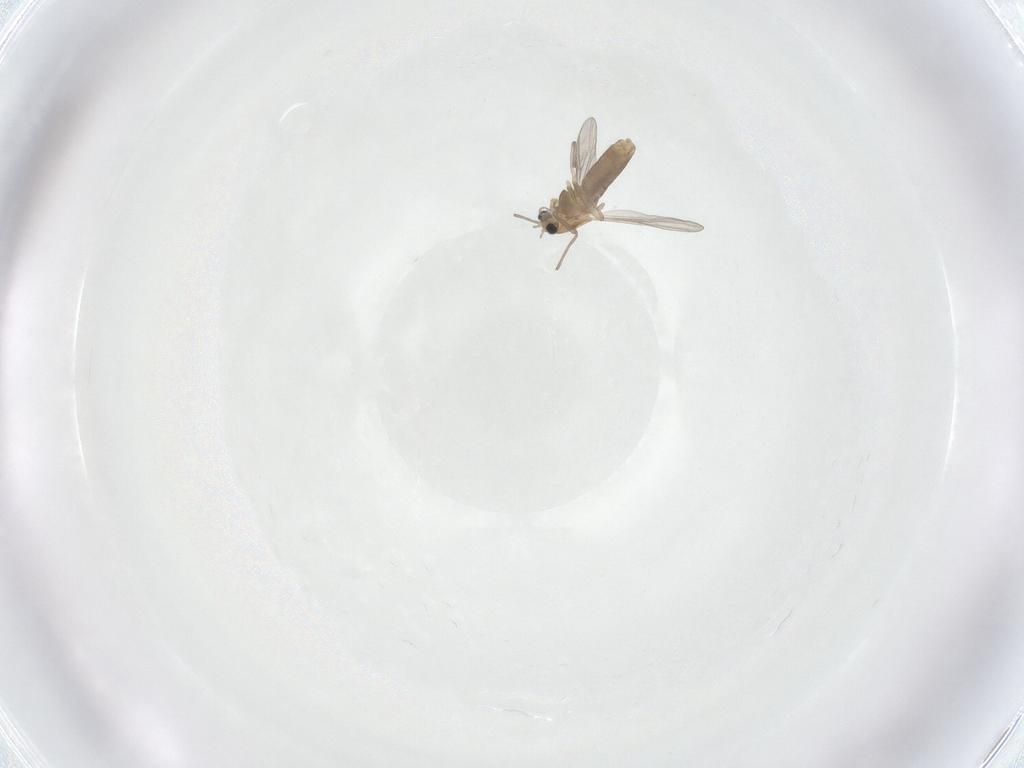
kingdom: Animalia
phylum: Arthropoda
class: Insecta
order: Diptera
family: Chironomidae
